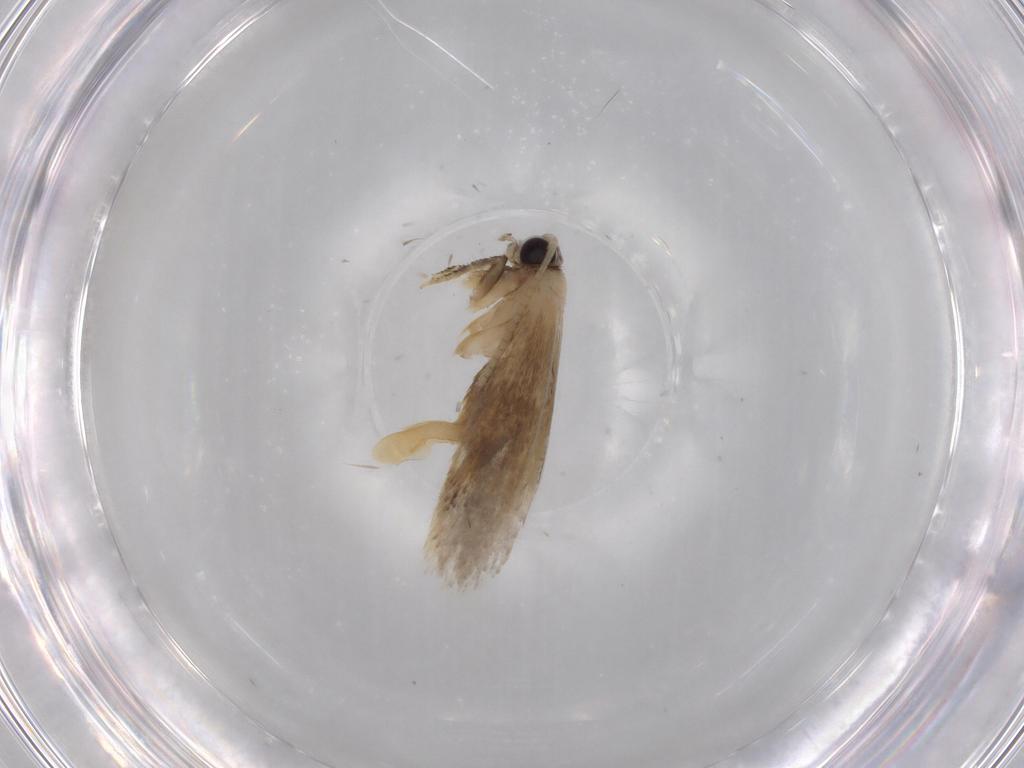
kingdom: Animalia
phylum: Arthropoda
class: Insecta
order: Lepidoptera
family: Nepticulidae
